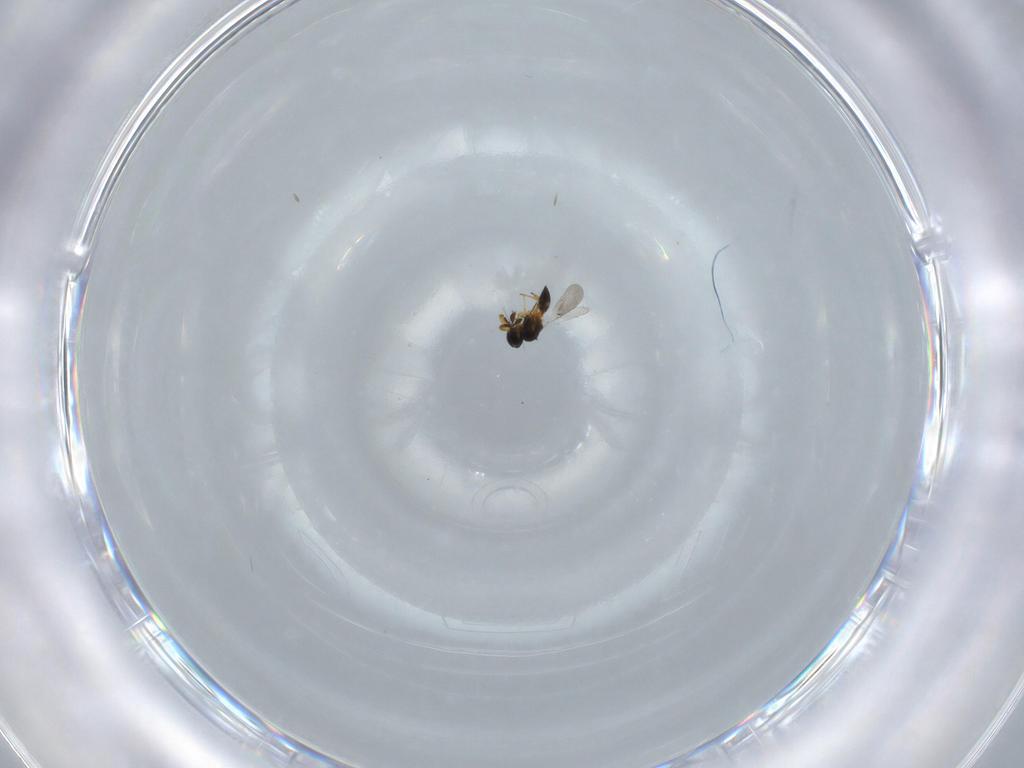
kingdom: Animalia
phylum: Arthropoda
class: Insecta
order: Hymenoptera
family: Platygastridae
